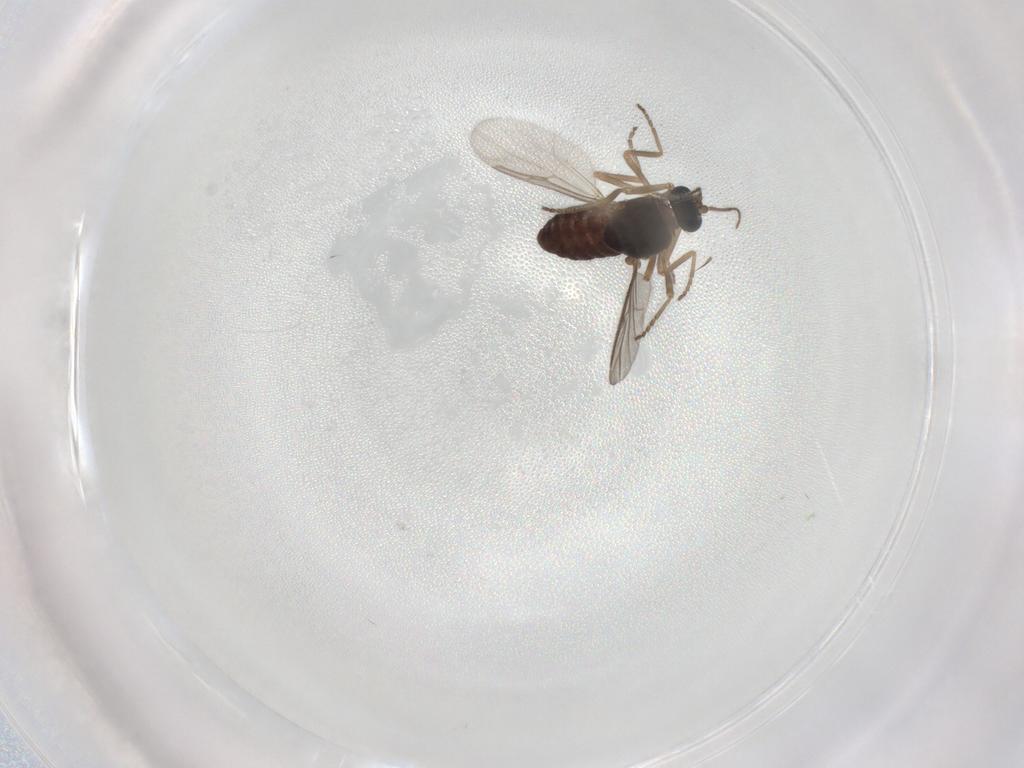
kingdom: Animalia
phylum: Arthropoda
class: Insecta
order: Diptera
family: Ceratopogonidae
